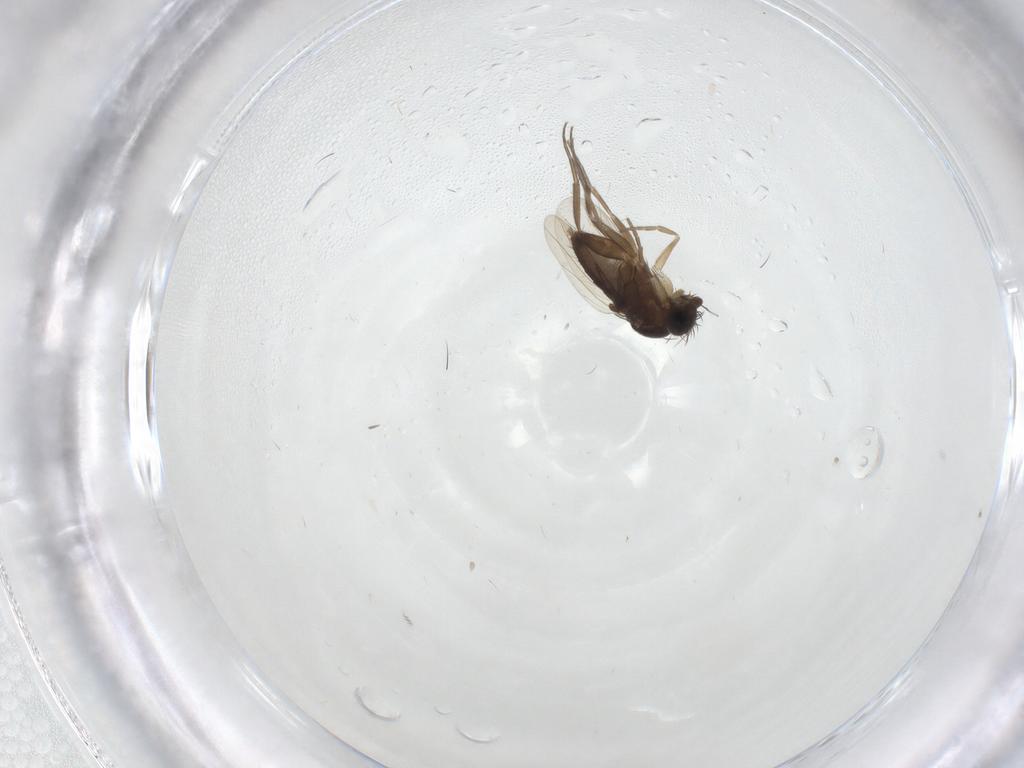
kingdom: Animalia
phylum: Arthropoda
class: Insecta
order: Diptera
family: Phoridae
